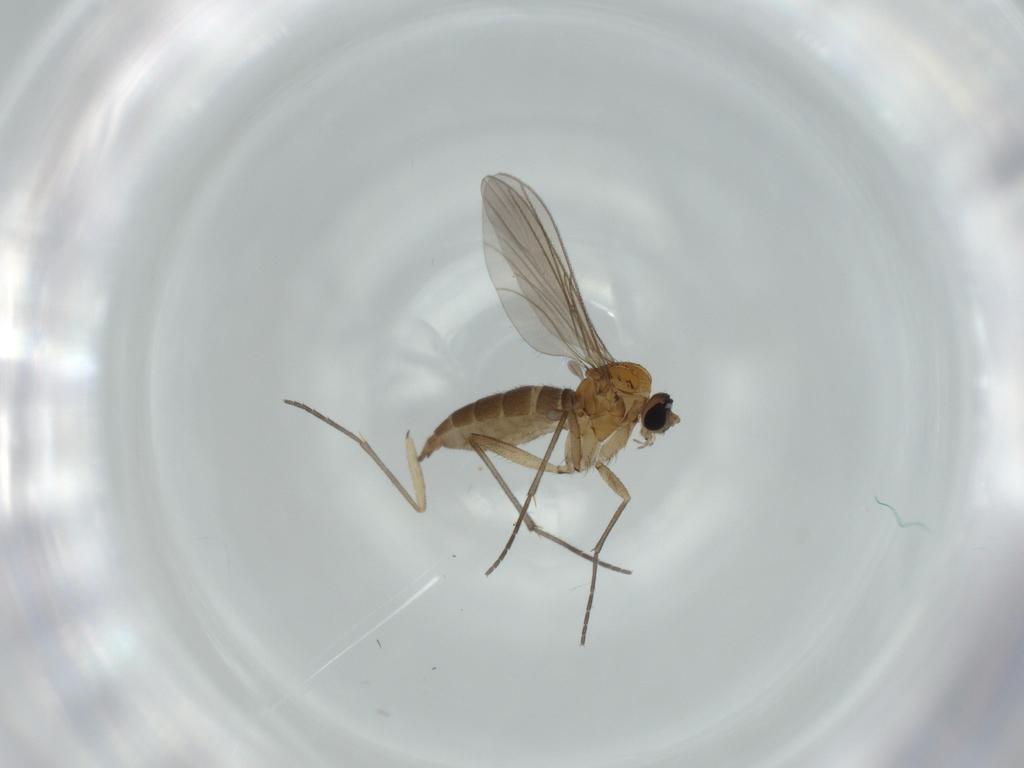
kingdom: Animalia
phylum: Arthropoda
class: Insecta
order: Diptera
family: Sciaridae
